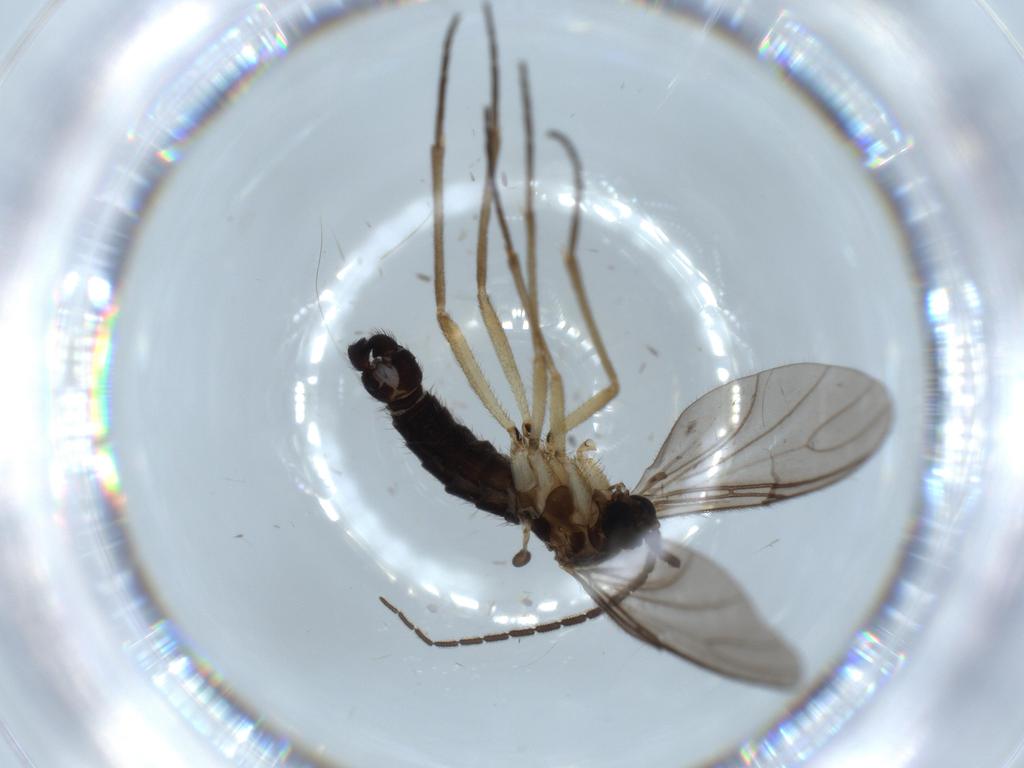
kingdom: Animalia
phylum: Arthropoda
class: Insecta
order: Diptera
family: Sciaridae
